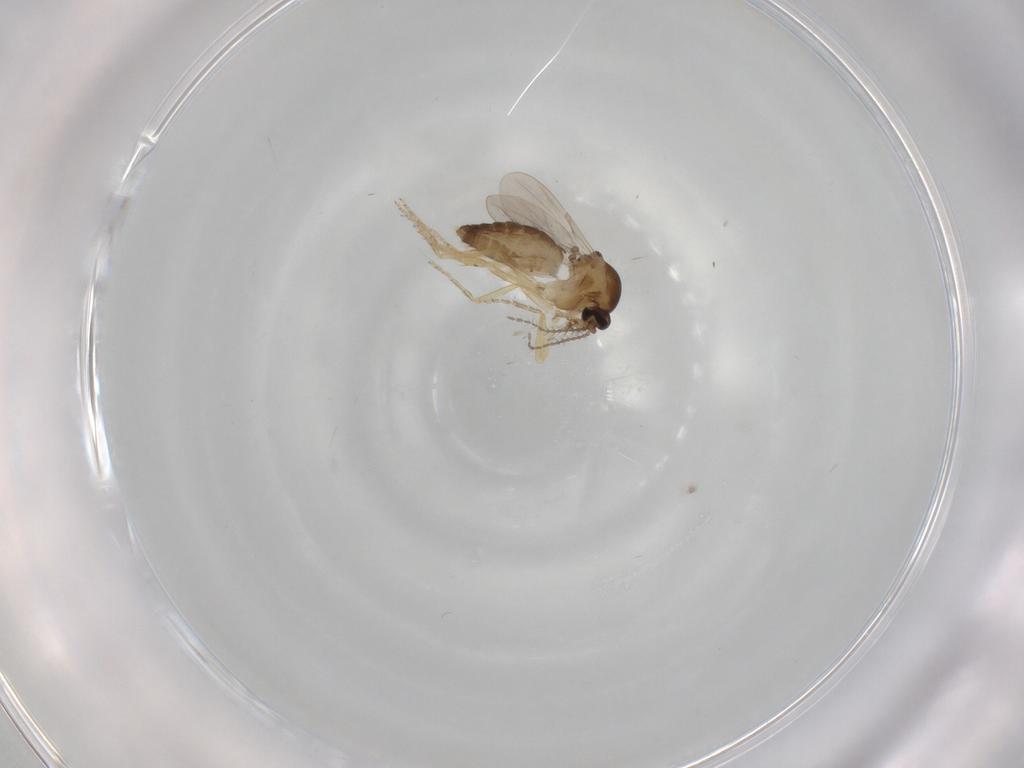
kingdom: Animalia
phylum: Arthropoda
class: Insecta
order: Diptera
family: Ceratopogonidae
